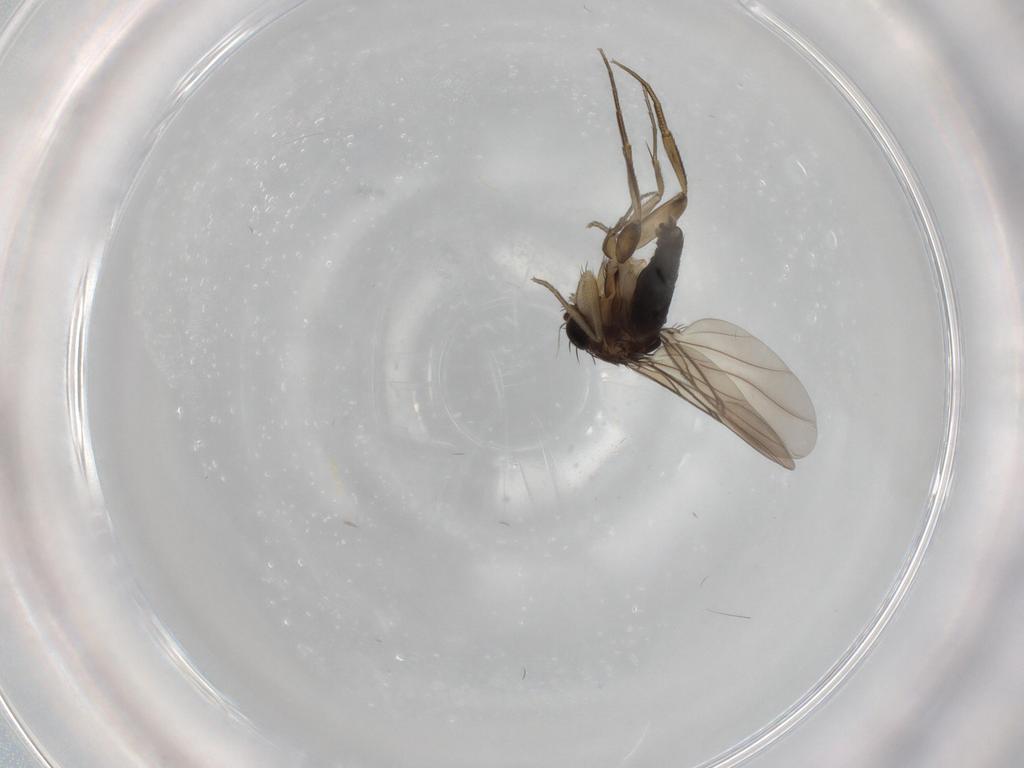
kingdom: Animalia
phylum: Arthropoda
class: Insecta
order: Diptera
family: Phoridae
